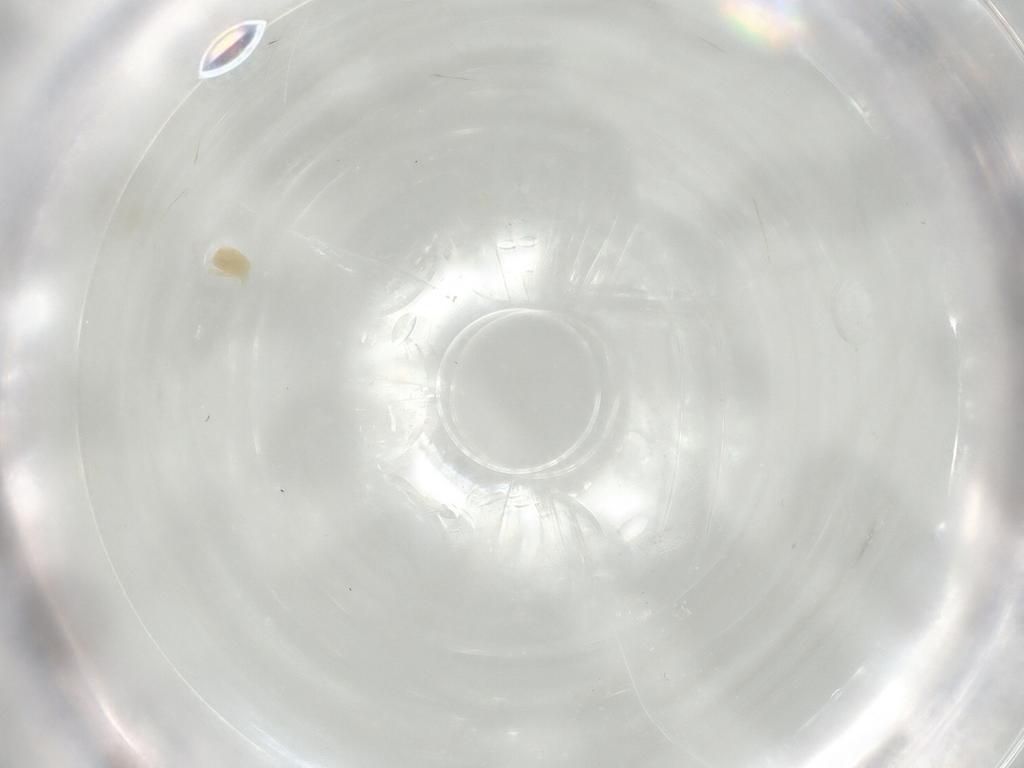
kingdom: Animalia
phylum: Arthropoda
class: Arachnida
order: Trombidiformes
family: Tetranychidae
